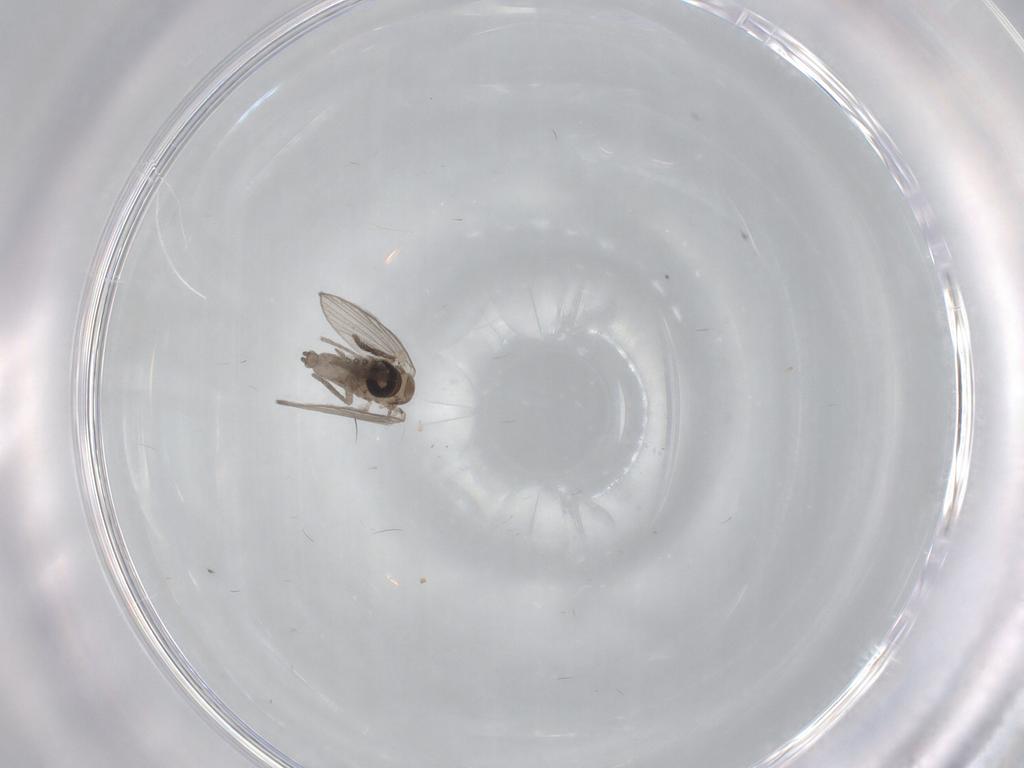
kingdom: Animalia
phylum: Arthropoda
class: Insecta
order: Diptera
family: Psychodidae
